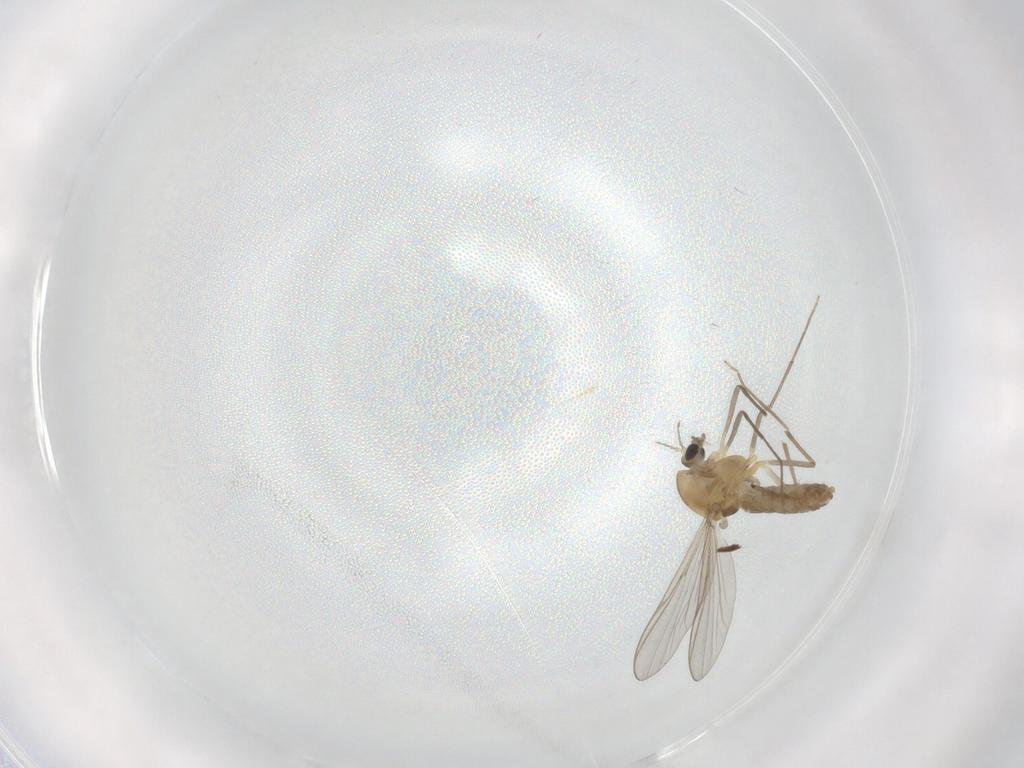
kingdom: Animalia
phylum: Arthropoda
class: Insecta
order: Diptera
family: Chironomidae
